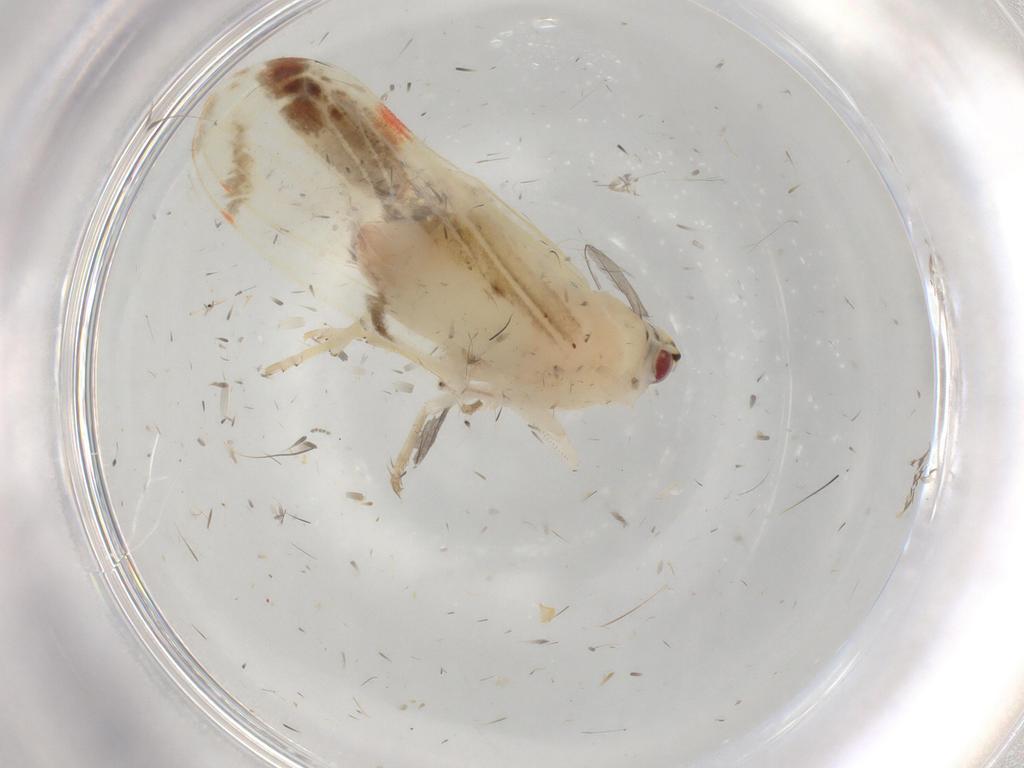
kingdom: Animalia
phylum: Arthropoda
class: Insecta
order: Hemiptera
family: Derbidae
